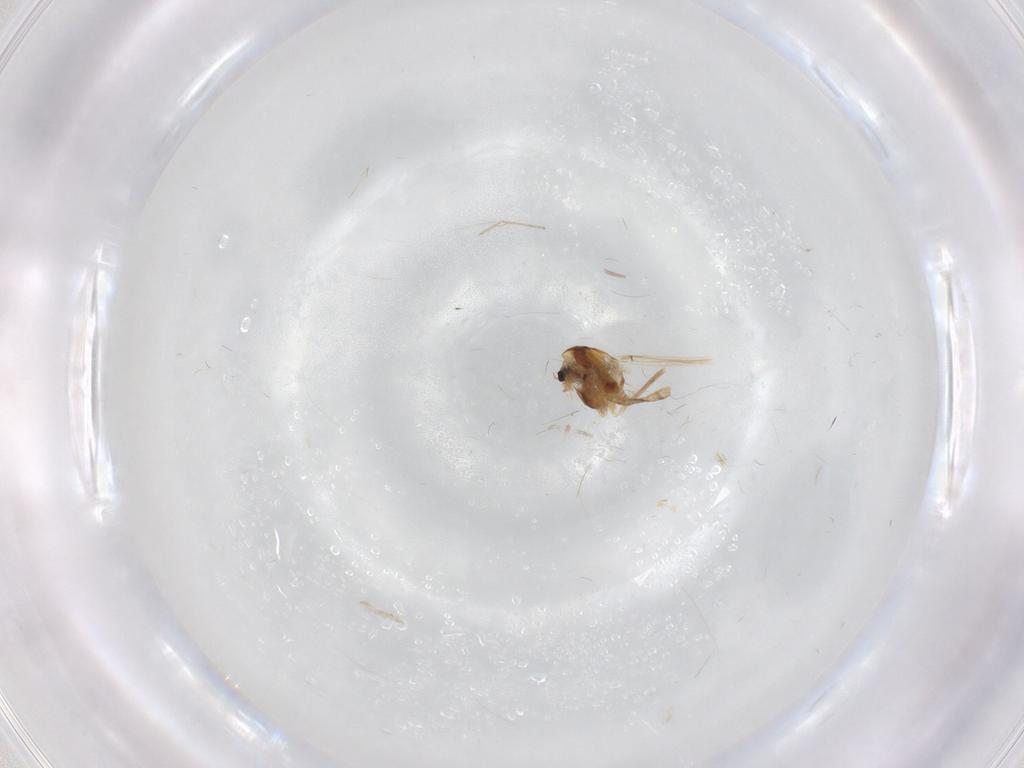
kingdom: Animalia
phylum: Arthropoda
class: Insecta
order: Diptera
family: Chironomidae
